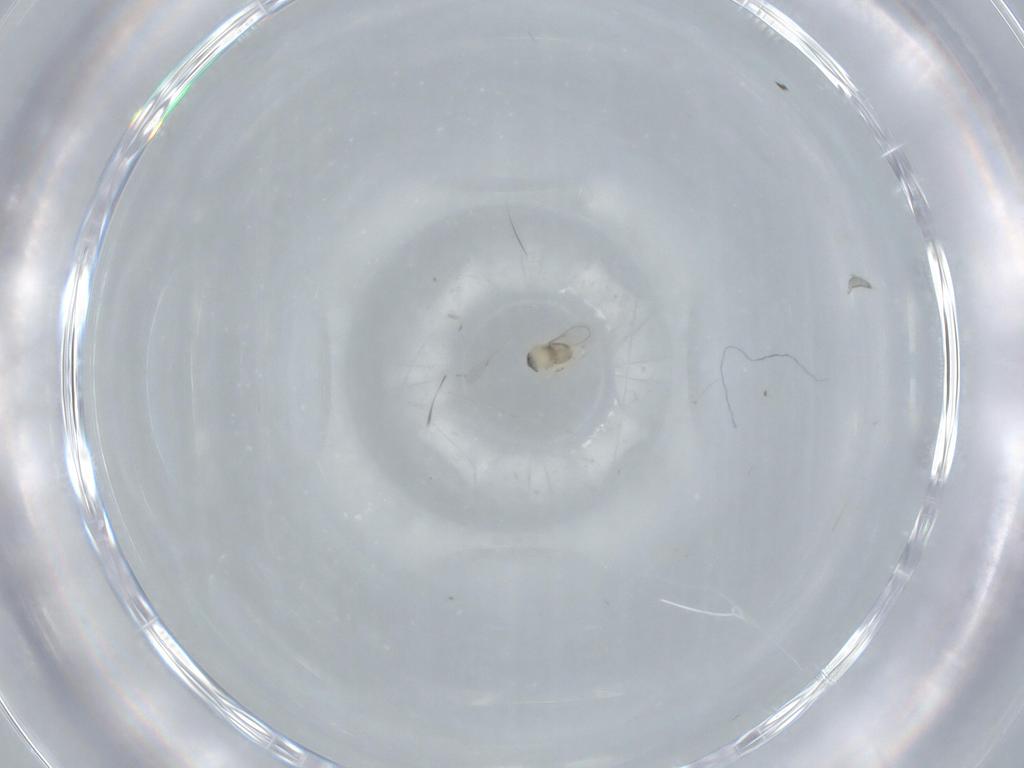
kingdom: Animalia
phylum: Arthropoda
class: Insecta
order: Hymenoptera
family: Aphelinidae
